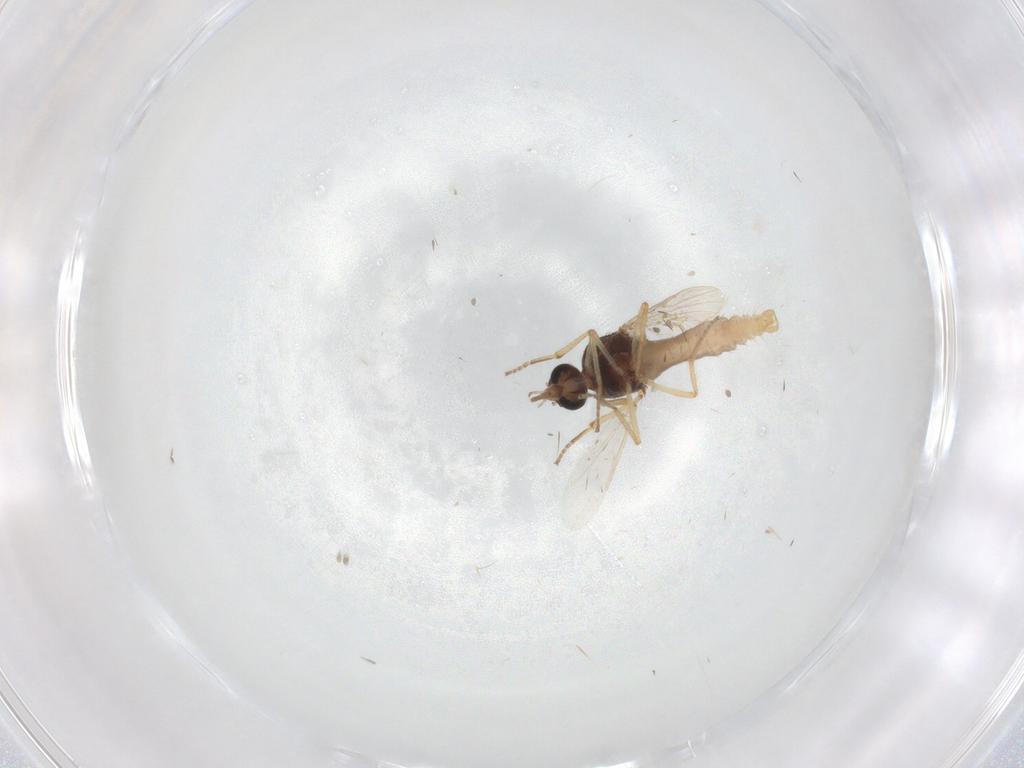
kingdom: Animalia
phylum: Arthropoda
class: Insecta
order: Diptera
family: Ceratopogonidae
